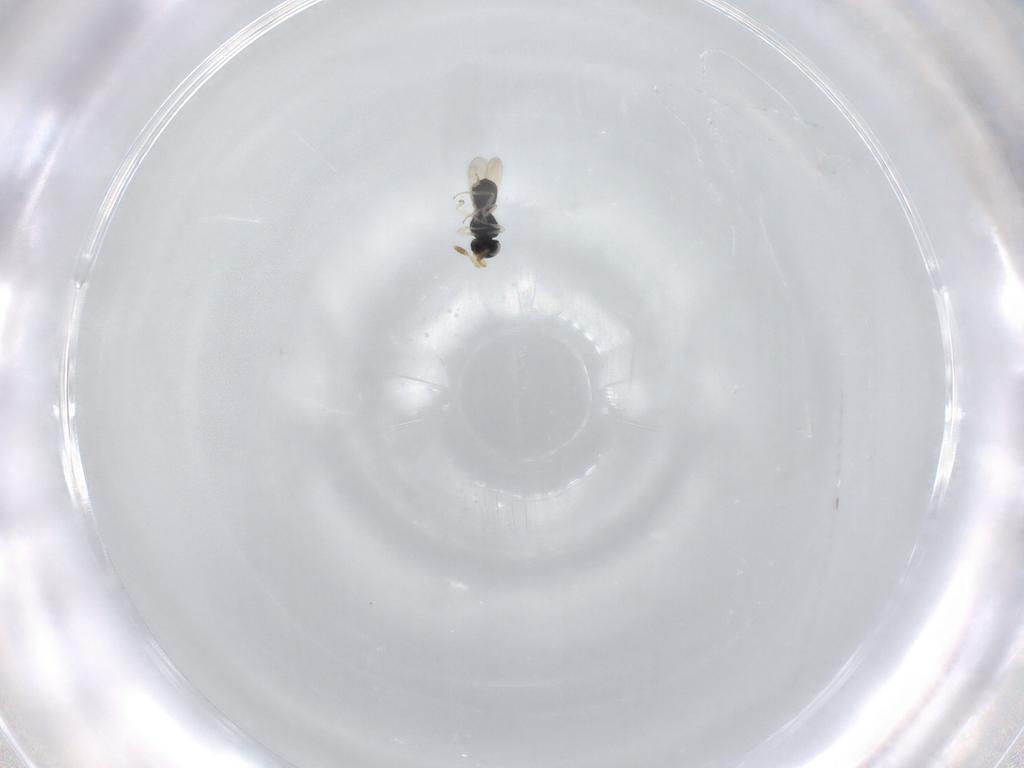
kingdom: Animalia
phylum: Arthropoda
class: Insecta
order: Hymenoptera
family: Scelionidae
